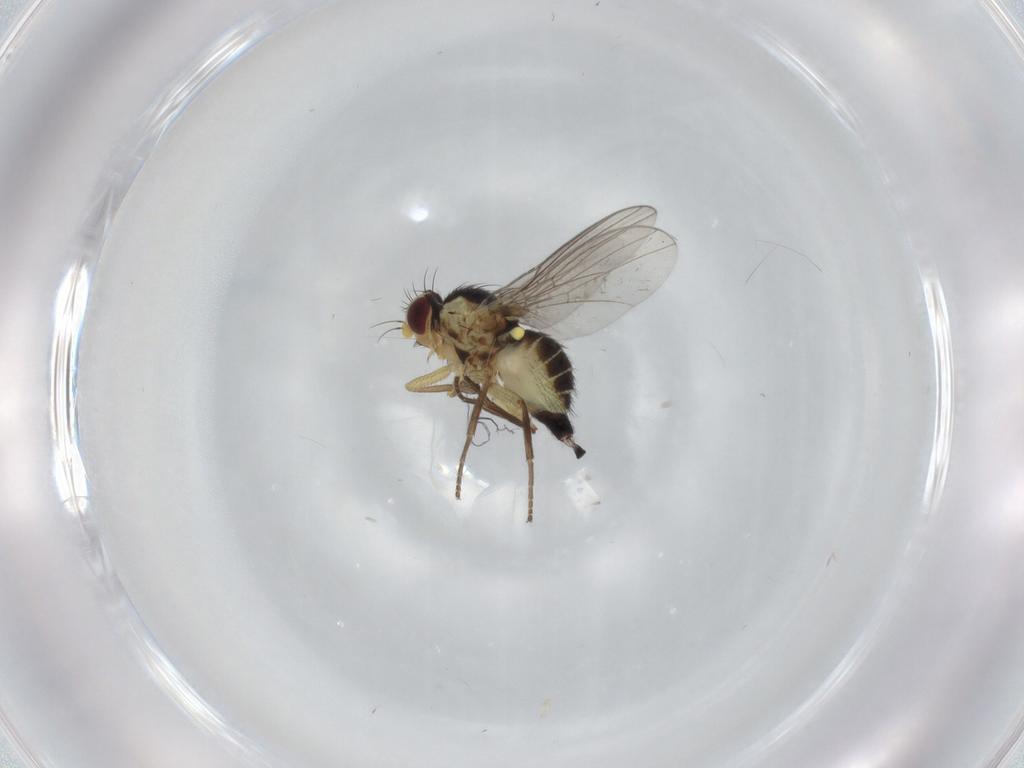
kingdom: Animalia
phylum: Arthropoda
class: Insecta
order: Diptera
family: Agromyzidae
